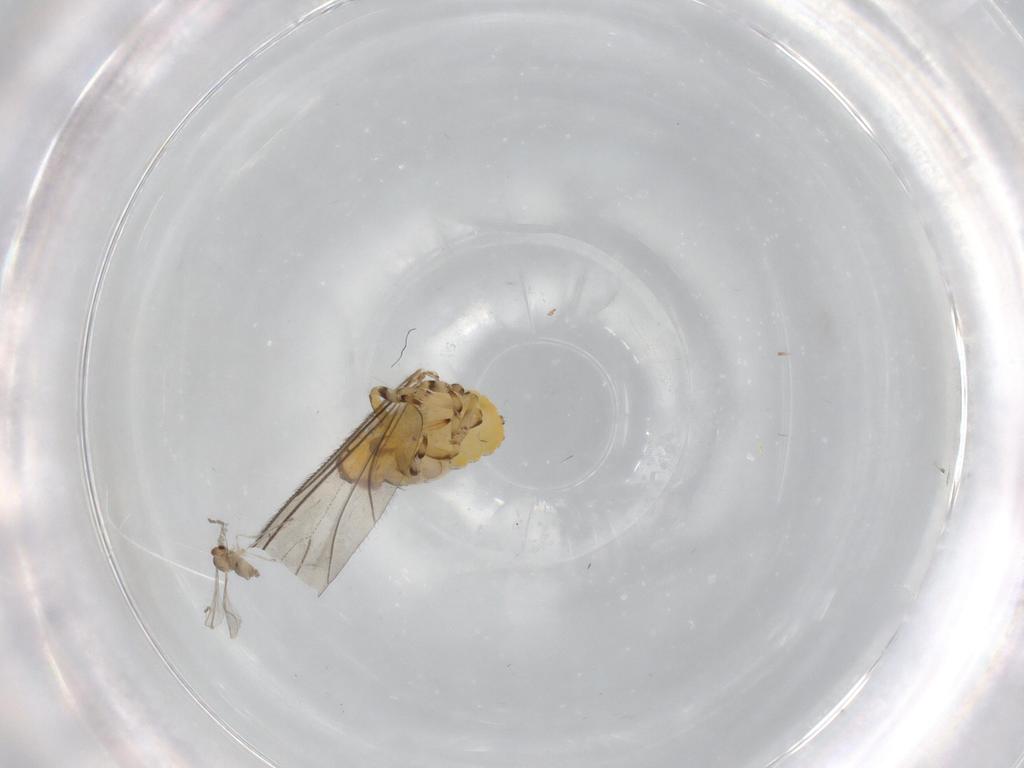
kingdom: Animalia
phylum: Arthropoda
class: Insecta
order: Hemiptera
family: Issidae
